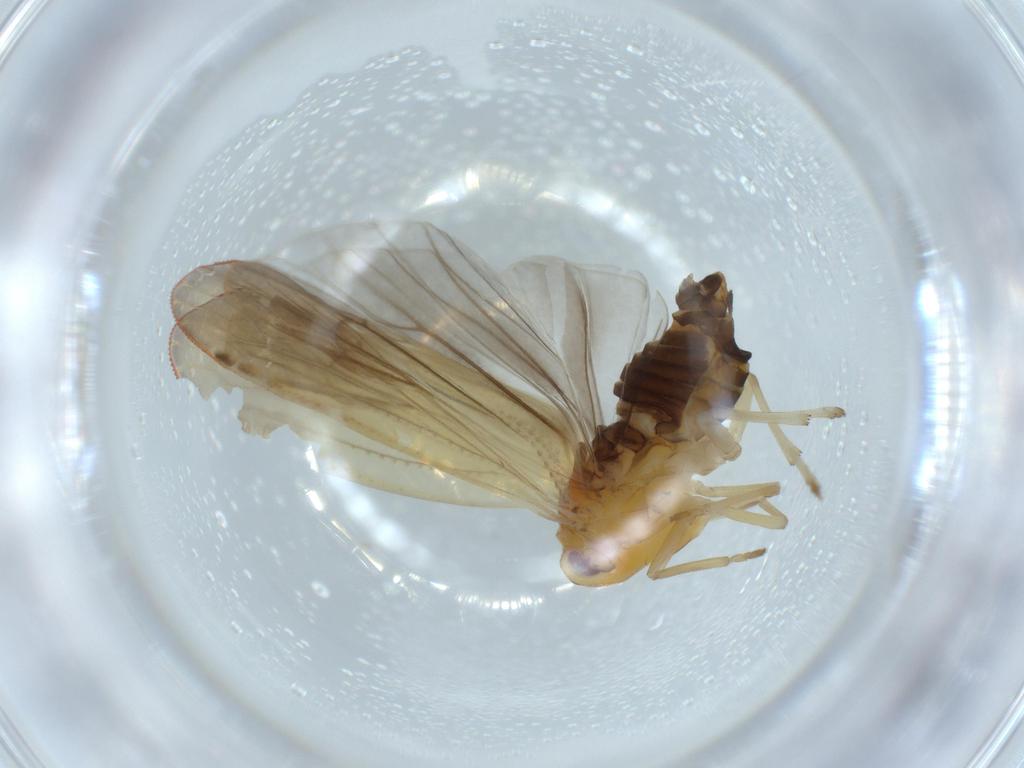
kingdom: Animalia
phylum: Arthropoda
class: Insecta
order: Hemiptera
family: Derbidae
